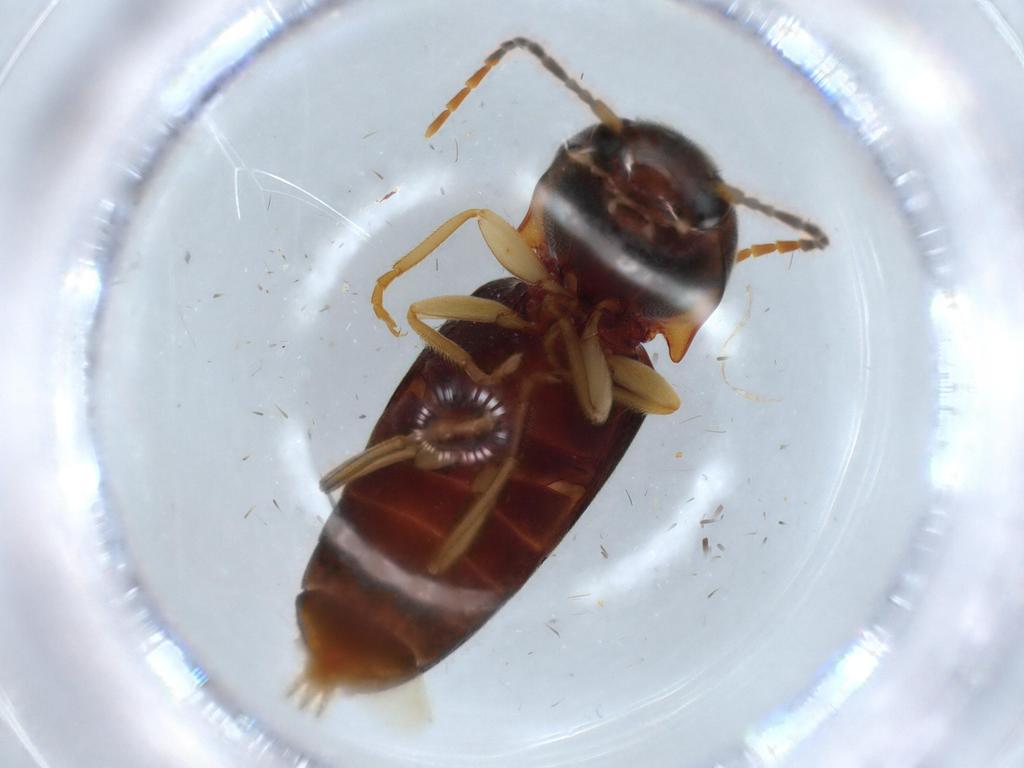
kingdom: Animalia
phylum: Arthropoda
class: Insecta
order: Coleoptera
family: Elateridae
